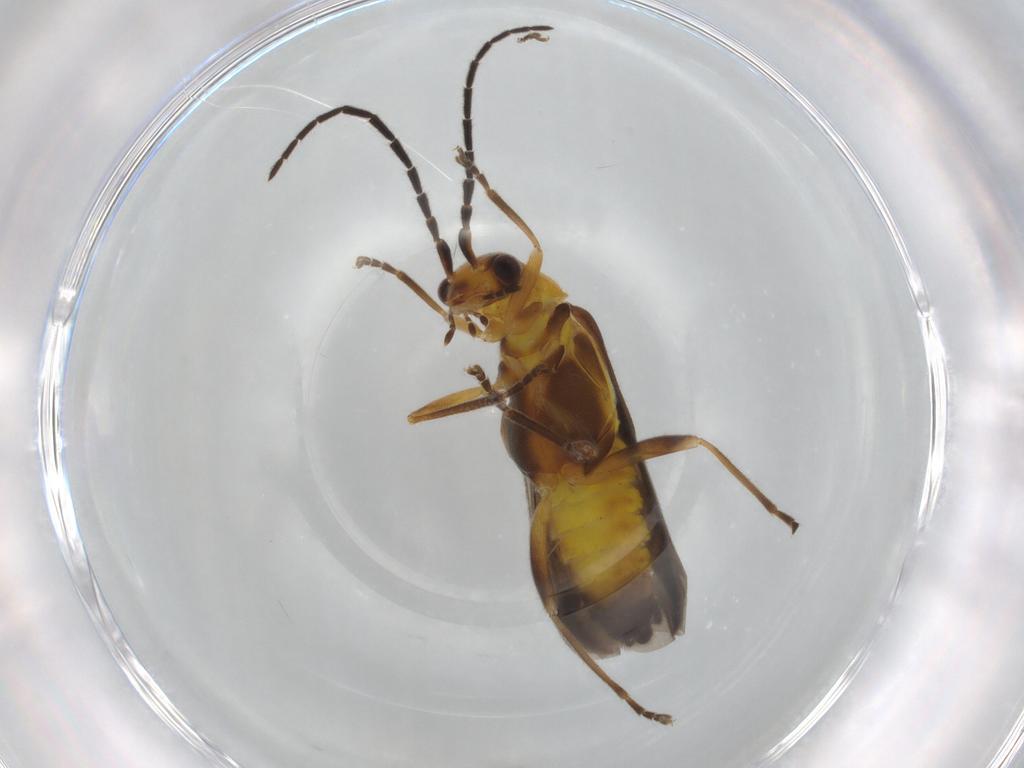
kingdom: Animalia
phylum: Arthropoda
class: Insecta
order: Coleoptera
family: Cantharidae
